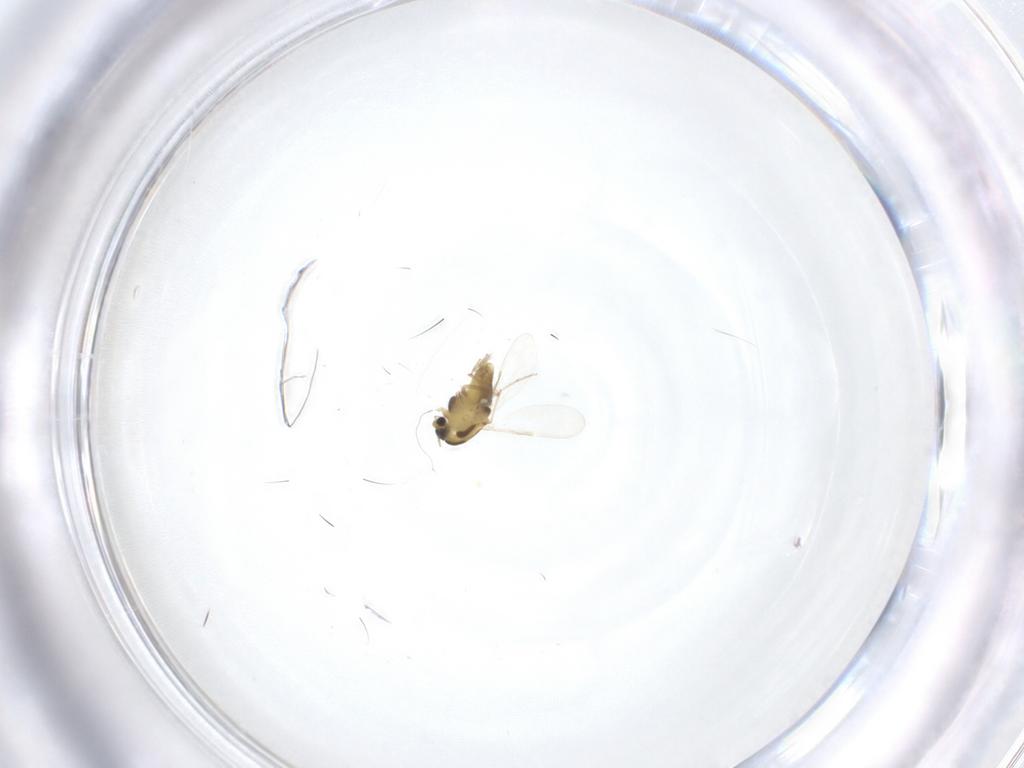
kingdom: Animalia
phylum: Arthropoda
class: Insecta
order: Diptera
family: Chironomidae
